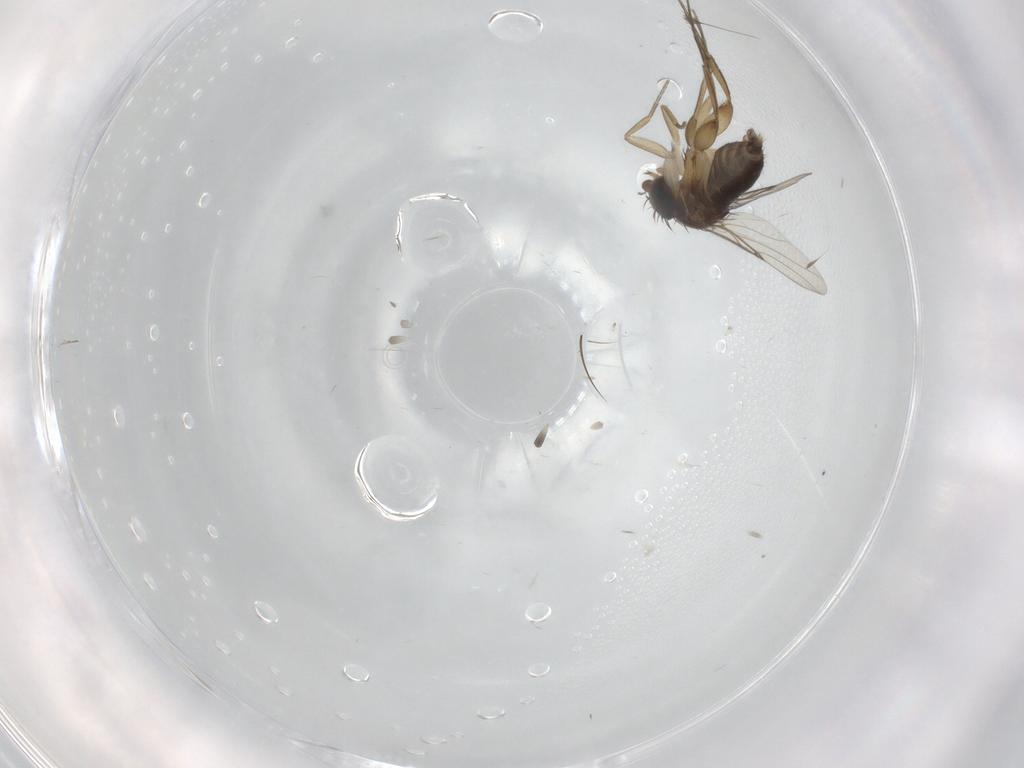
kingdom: Animalia
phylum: Arthropoda
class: Insecta
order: Diptera
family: Phoridae
